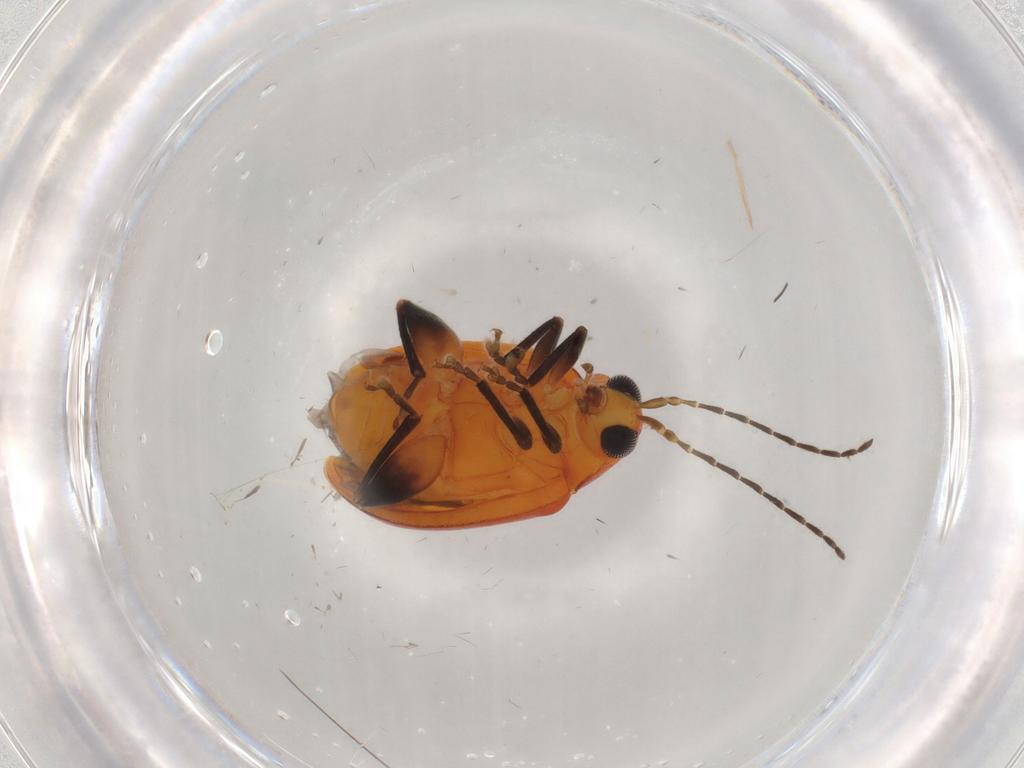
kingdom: Animalia
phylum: Arthropoda
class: Insecta
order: Coleoptera
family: Chrysomelidae
